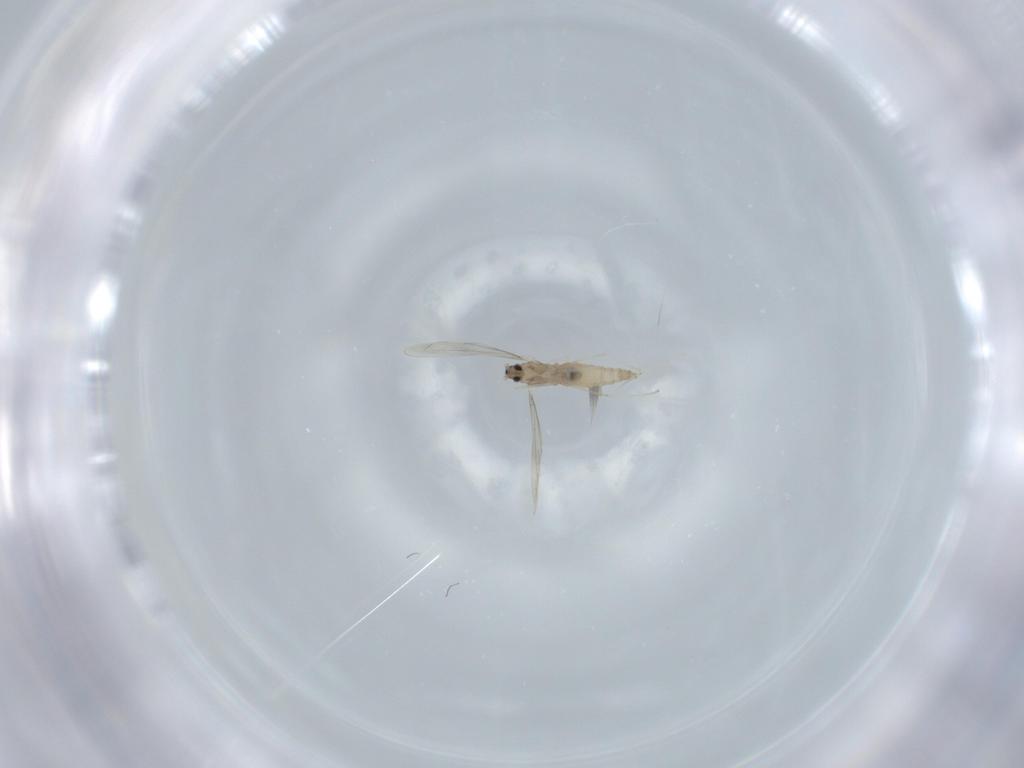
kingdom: Animalia
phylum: Arthropoda
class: Insecta
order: Diptera
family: Cecidomyiidae
